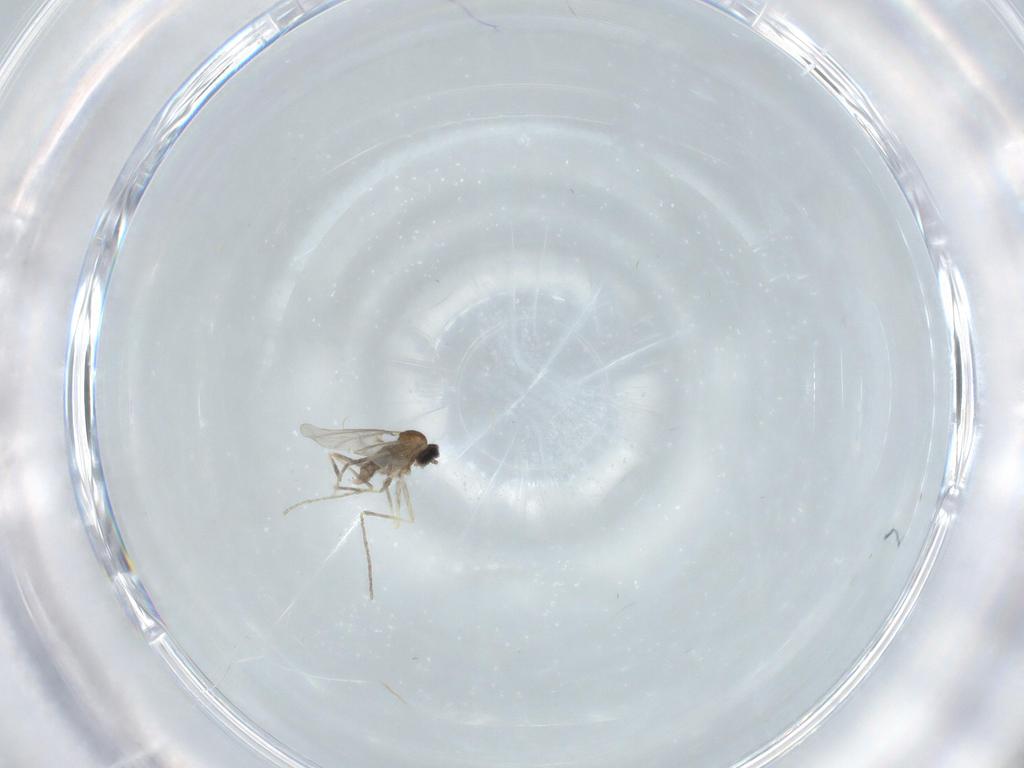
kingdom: Animalia
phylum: Arthropoda
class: Insecta
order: Diptera
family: Cecidomyiidae
